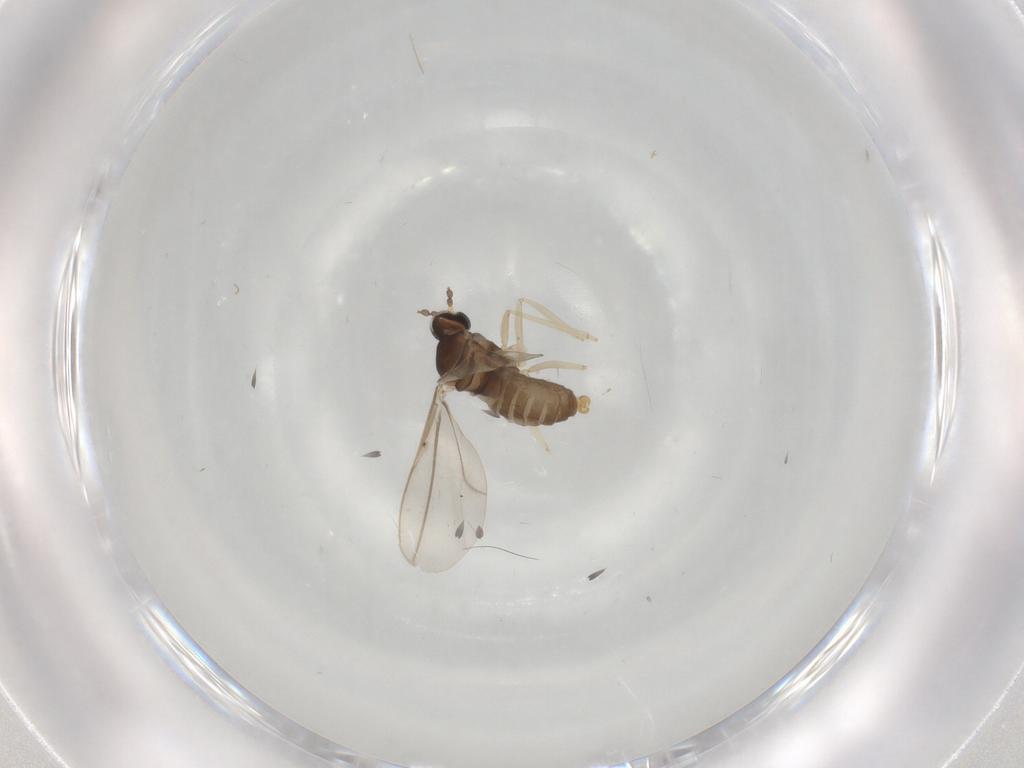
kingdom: Animalia
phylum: Arthropoda
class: Insecta
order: Diptera
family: Cecidomyiidae
